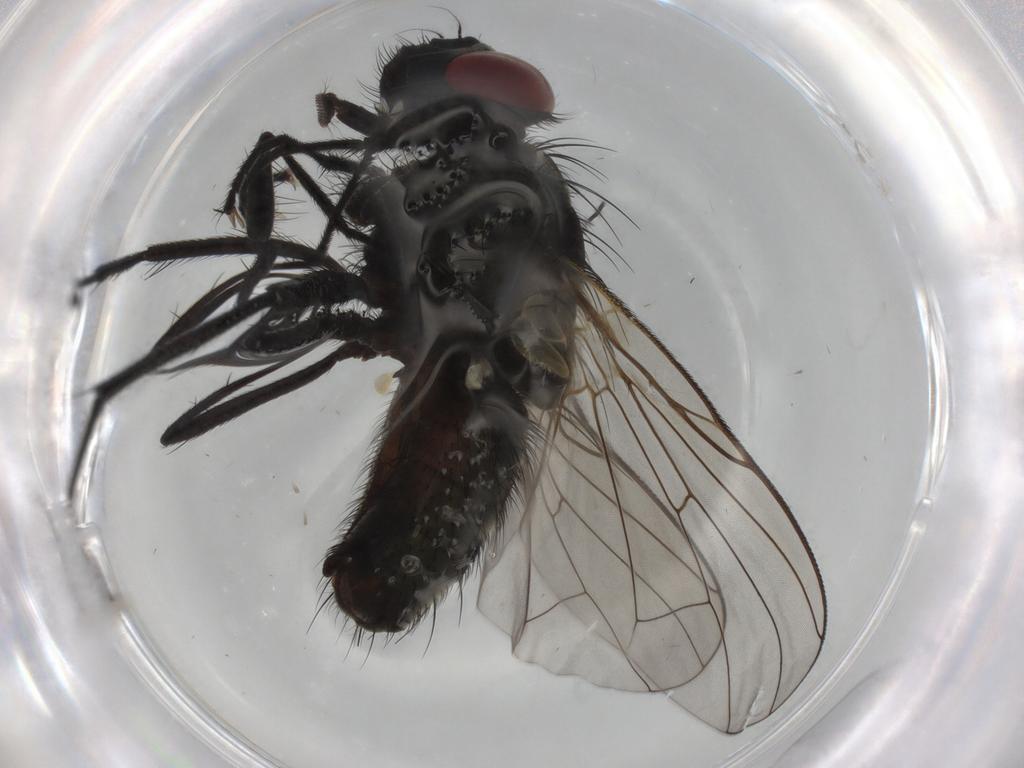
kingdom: Animalia
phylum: Arthropoda
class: Insecta
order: Diptera
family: Muscidae
